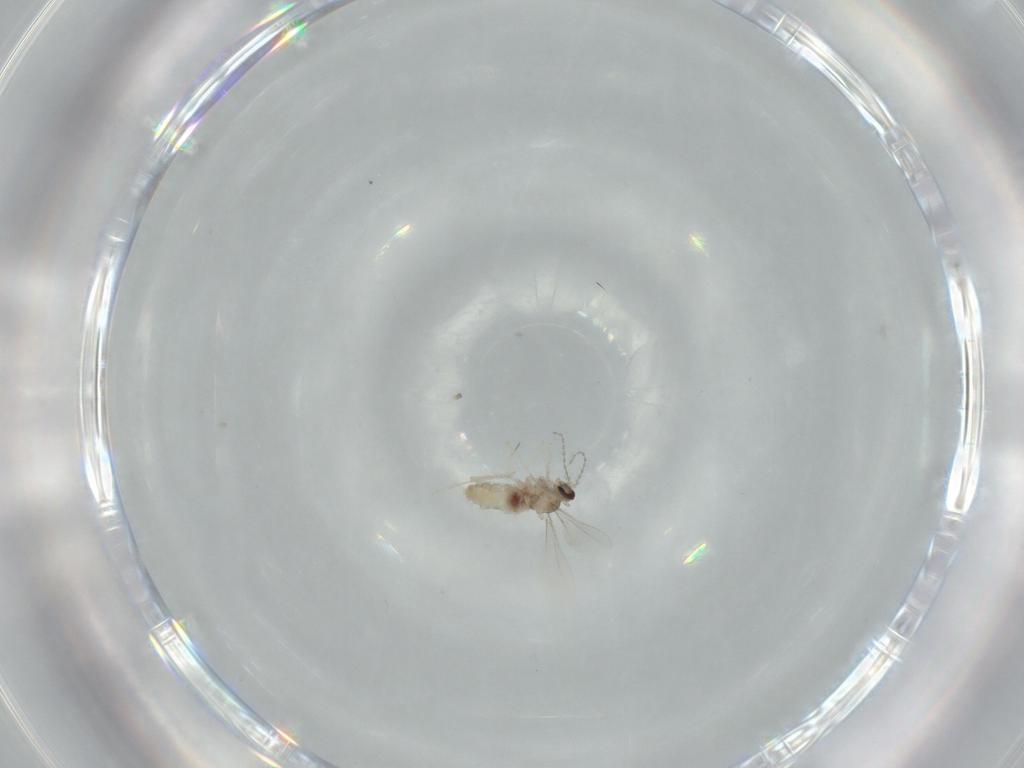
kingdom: Animalia
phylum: Arthropoda
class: Insecta
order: Diptera
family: Cecidomyiidae
